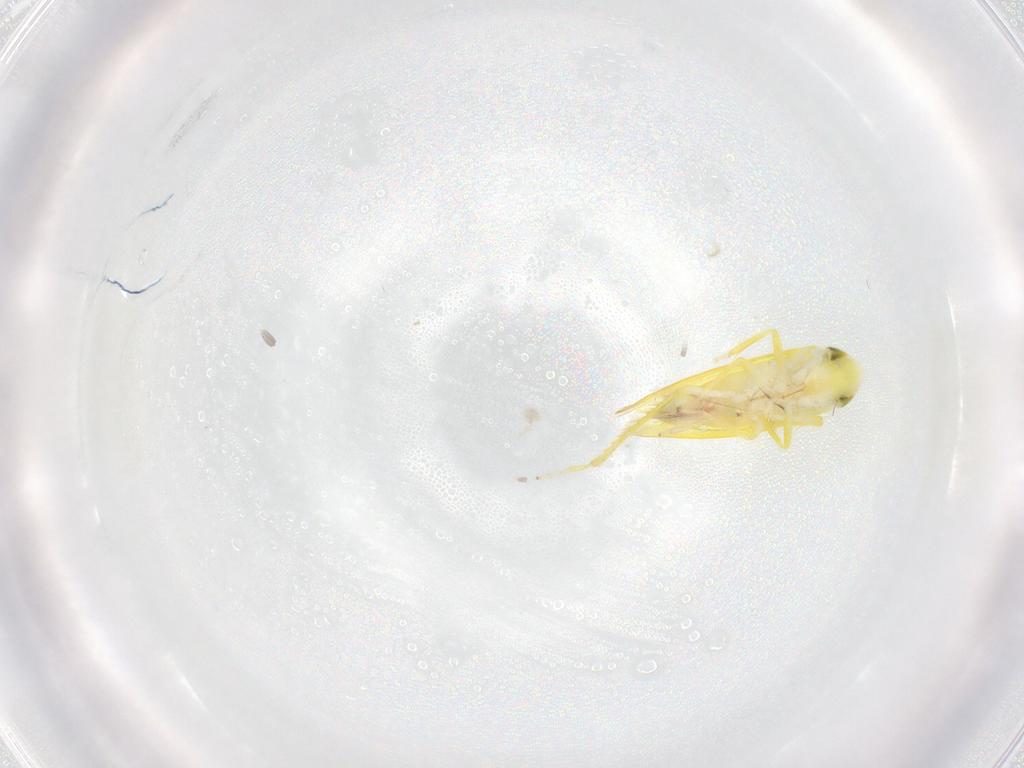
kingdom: Animalia
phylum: Arthropoda
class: Insecta
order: Hemiptera
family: Cicadellidae
